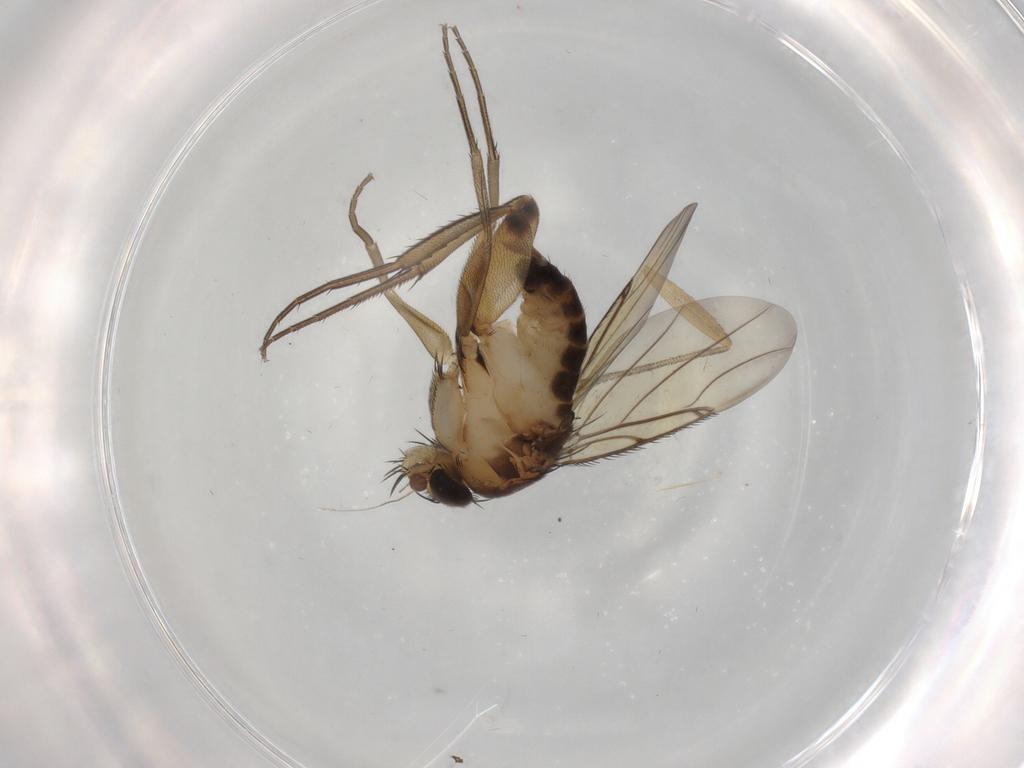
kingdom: Animalia
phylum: Arthropoda
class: Insecta
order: Diptera
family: Phoridae
